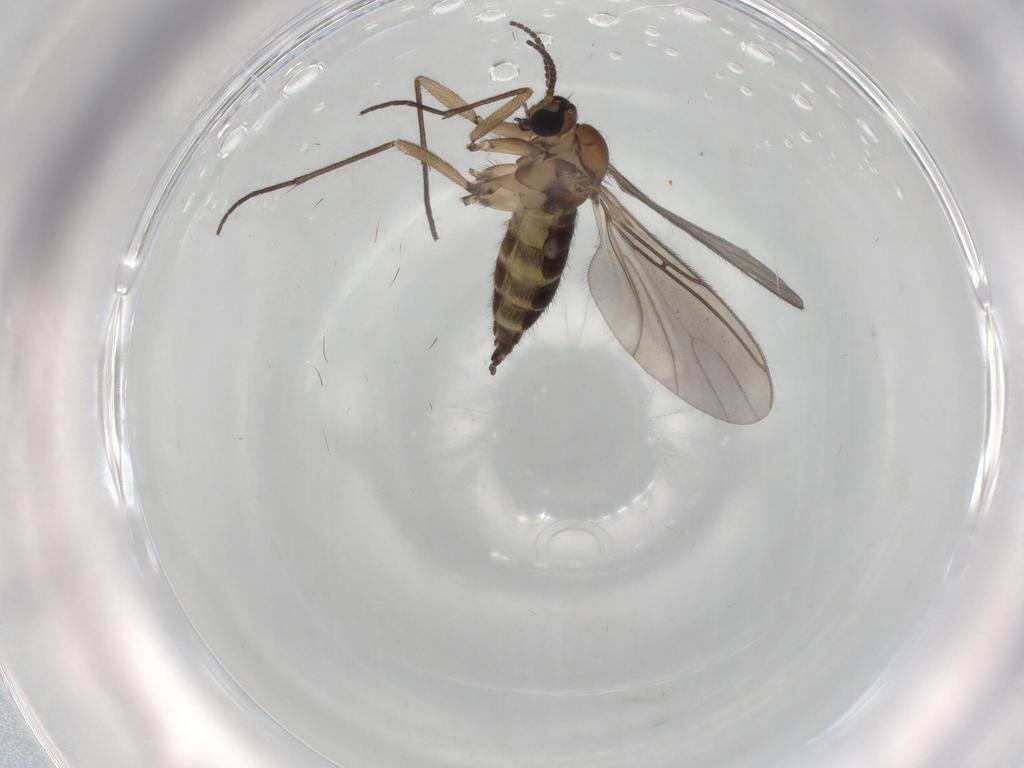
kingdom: Animalia
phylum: Arthropoda
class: Insecta
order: Diptera
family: Sciaridae
